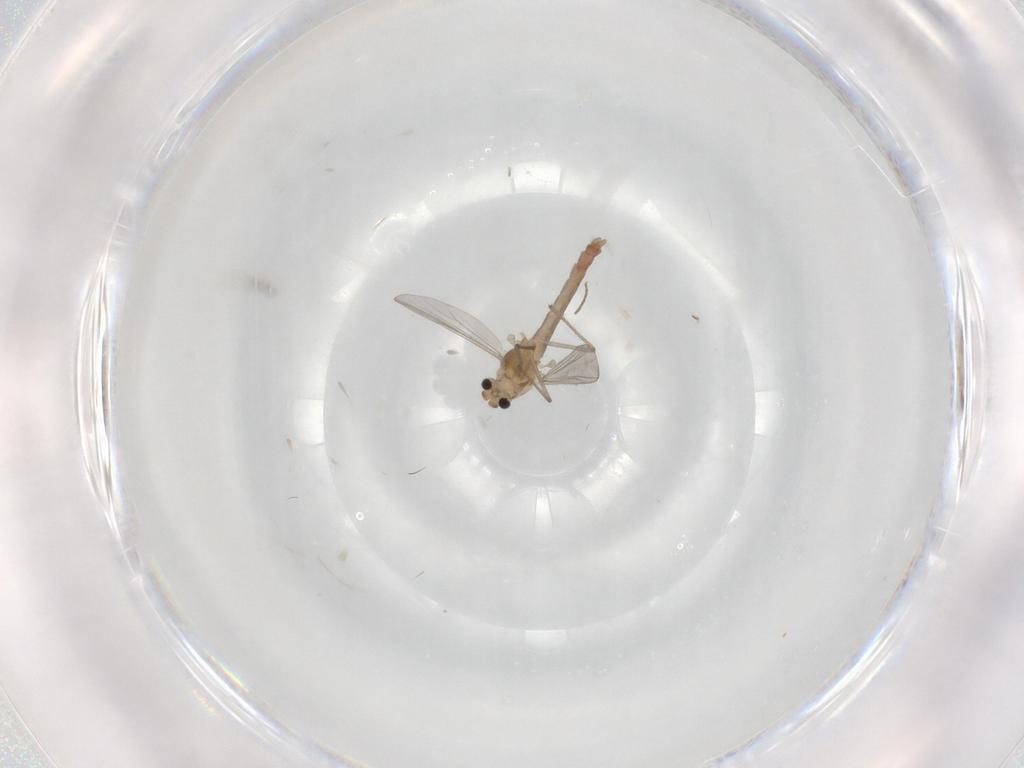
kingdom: Animalia
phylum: Arthropoda
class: Insecta
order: Diptera
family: Chironomidae
